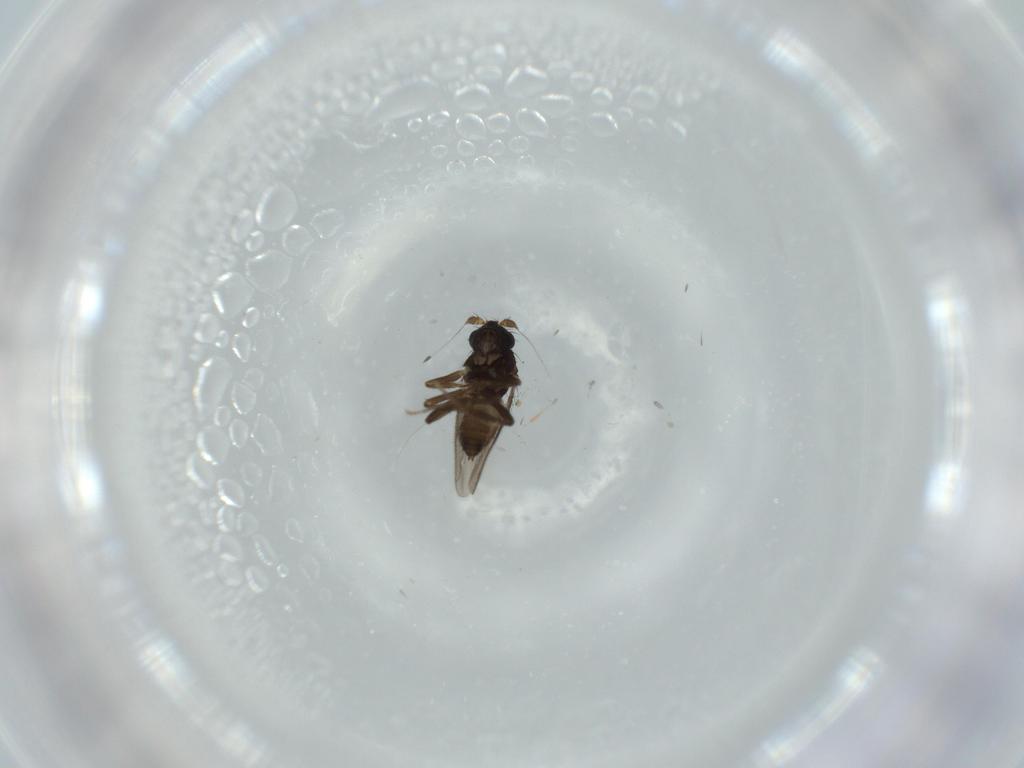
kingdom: Animalia
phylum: Arthropoda
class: Insecta
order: Diptera
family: Sphaeroceridae
